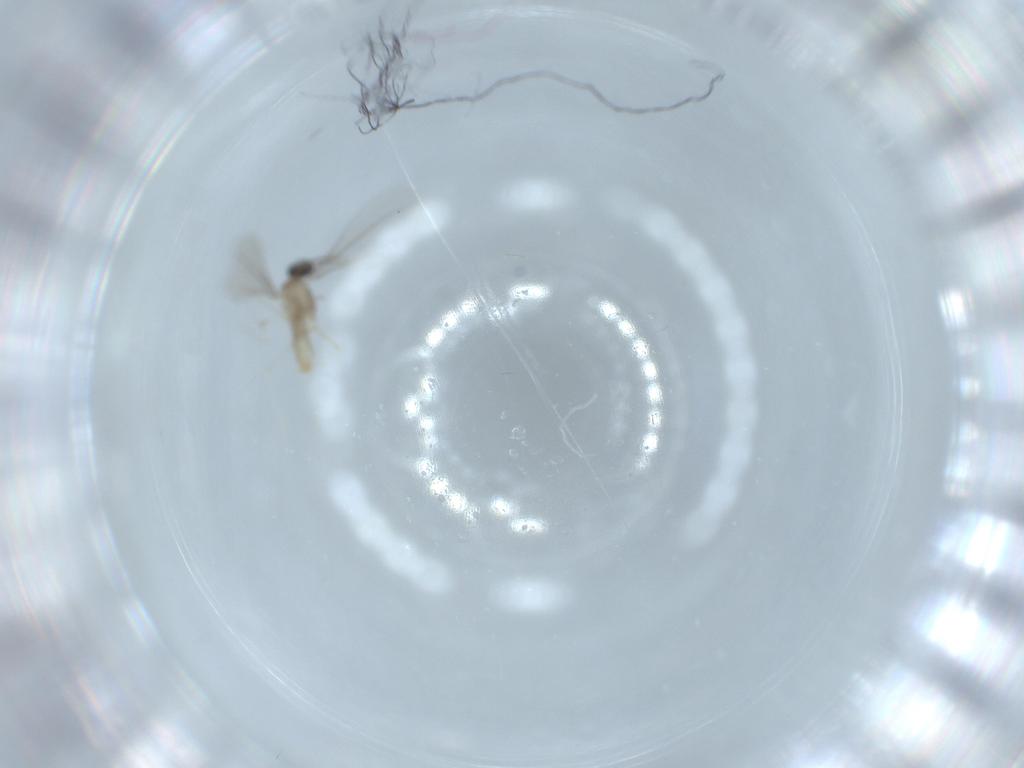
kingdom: Animalia
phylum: Arthropoda
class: Insecta
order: Diptera
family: Cecidomyiidae
